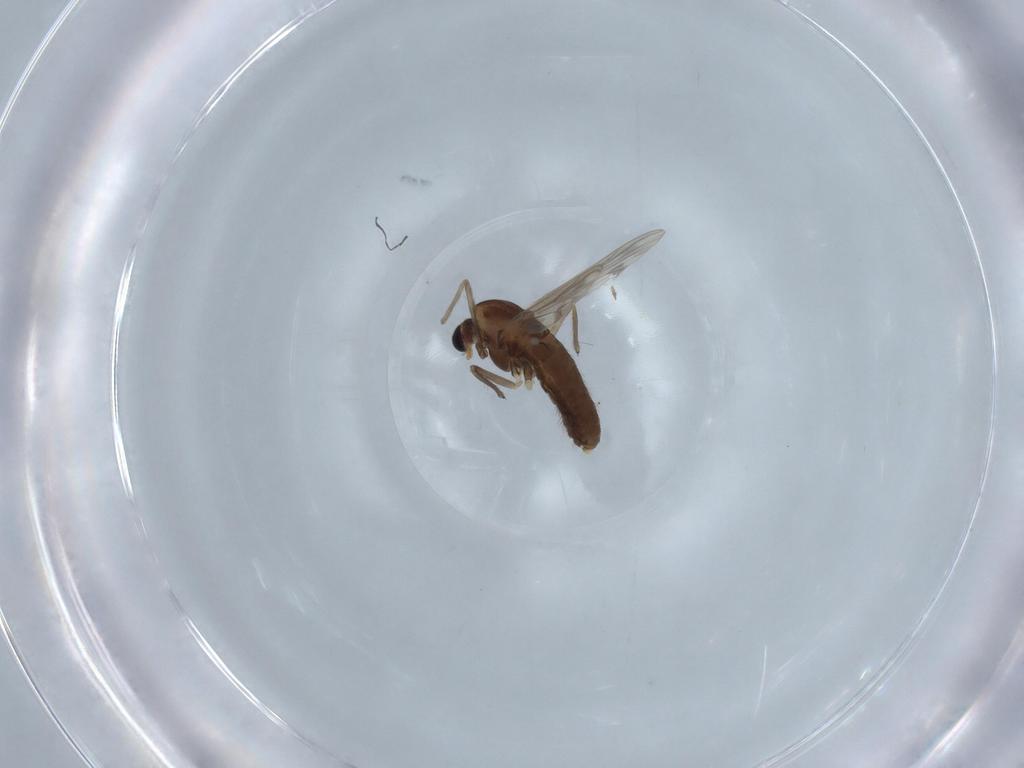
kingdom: Animalia
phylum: Arthropoda
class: Insecta
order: Diptera
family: Chironomidae
